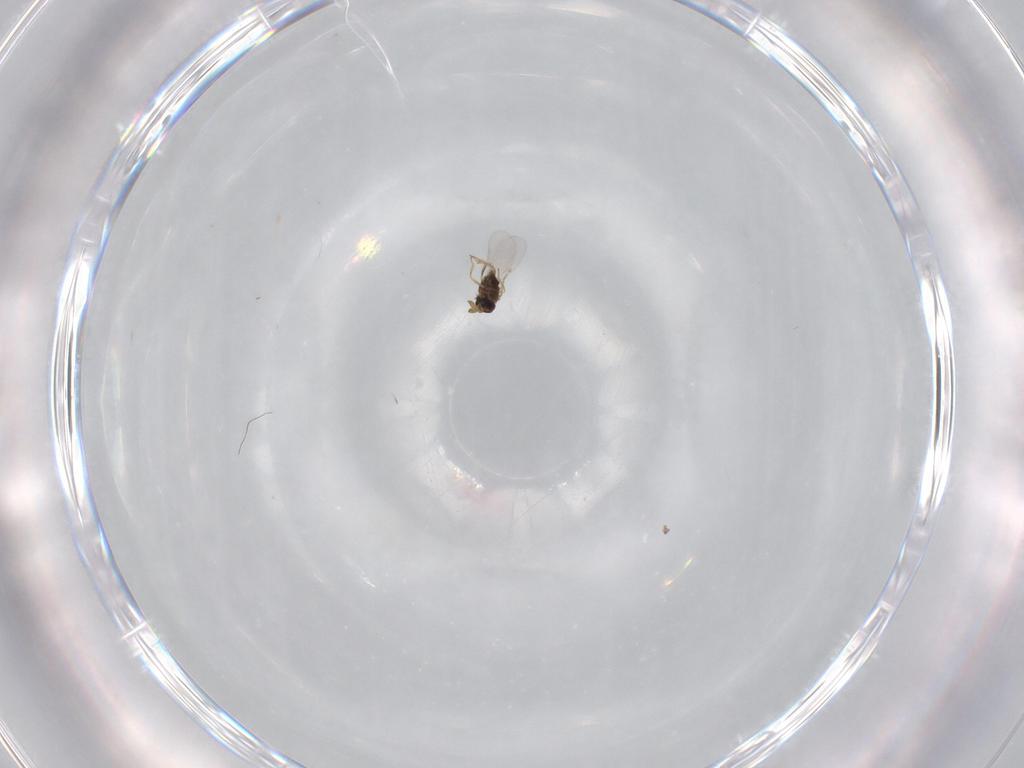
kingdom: Animalia
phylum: Arthropoda
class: Insecta
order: Hymenoptera
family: Encyrtidae
